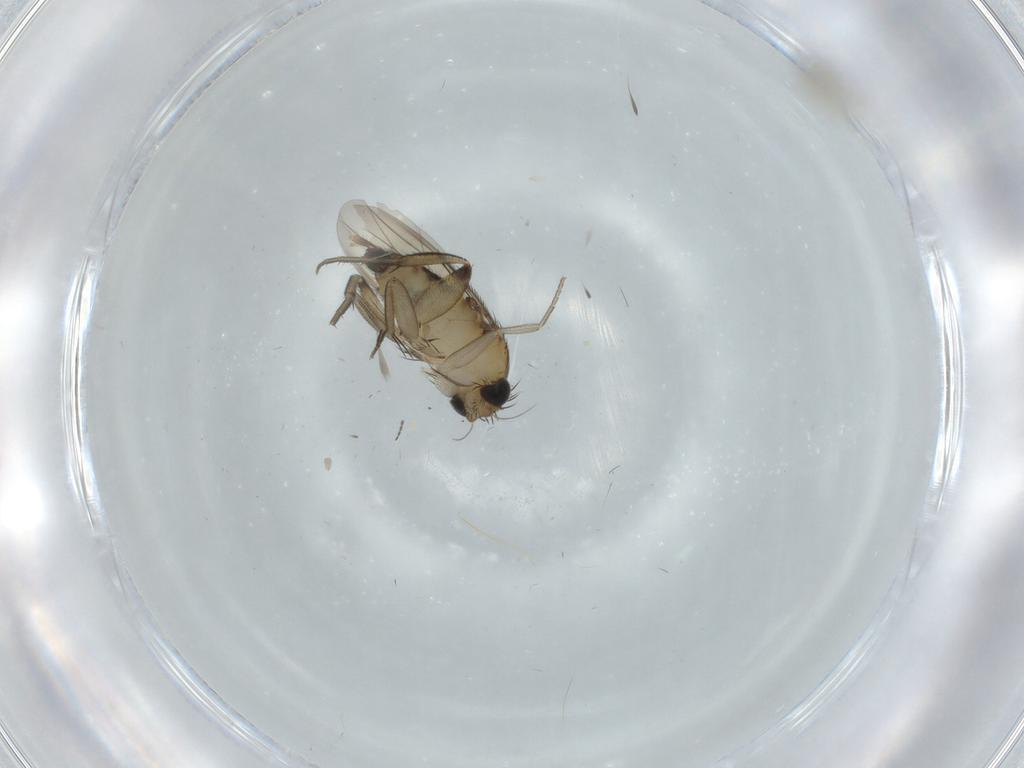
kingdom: Animalia
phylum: Arthropoda
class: Insecta
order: Diptera
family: Phoridae
